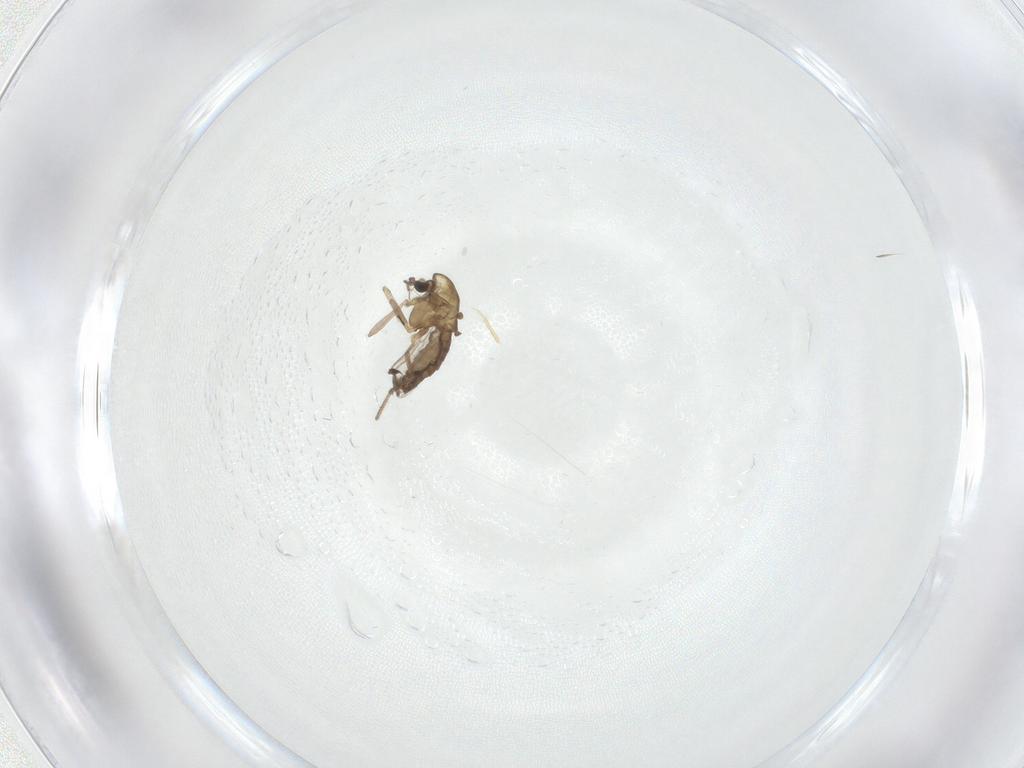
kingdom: Animalia
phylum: Arthropoda
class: Insecta
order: Diptera
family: Chironomidae
